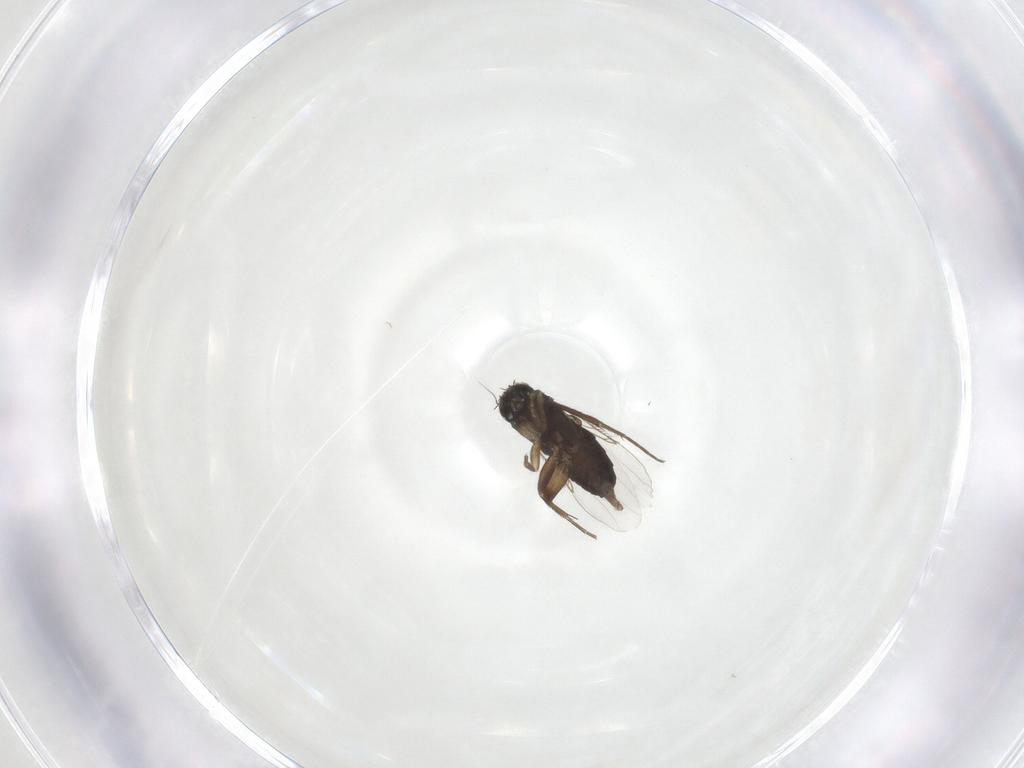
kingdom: Animalia
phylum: Arthropoda
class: Insecta
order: Diptera
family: Phoridae
